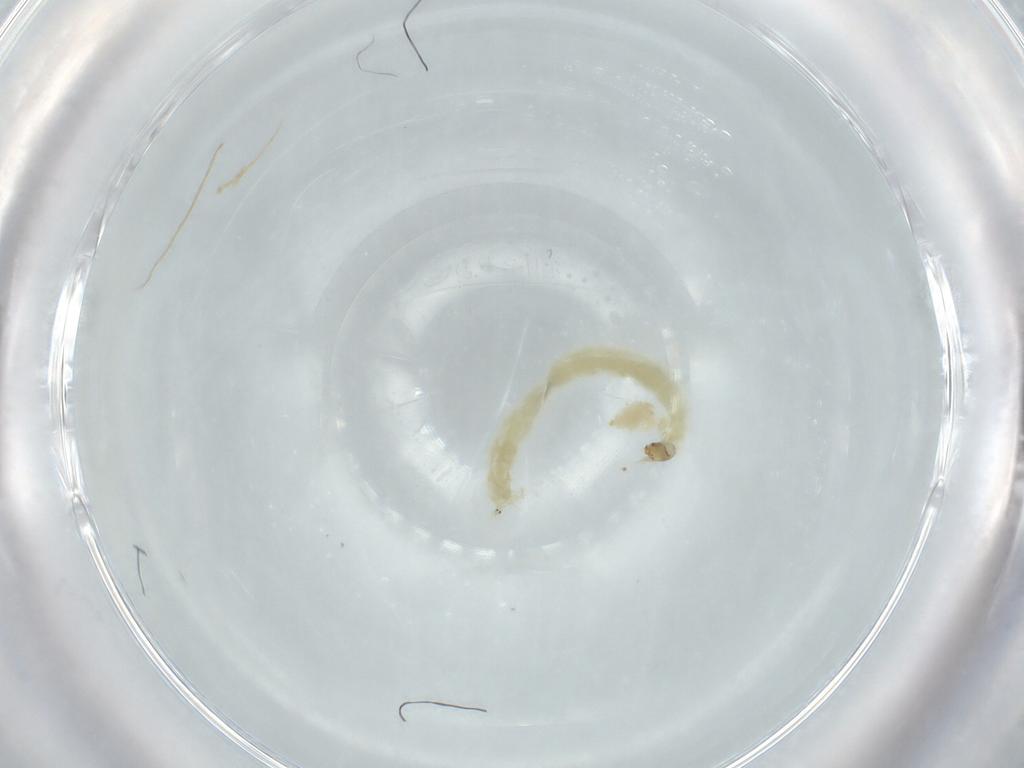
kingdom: Animalia
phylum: Arthropoda
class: Insecta
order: Diptera
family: Chironomidae
